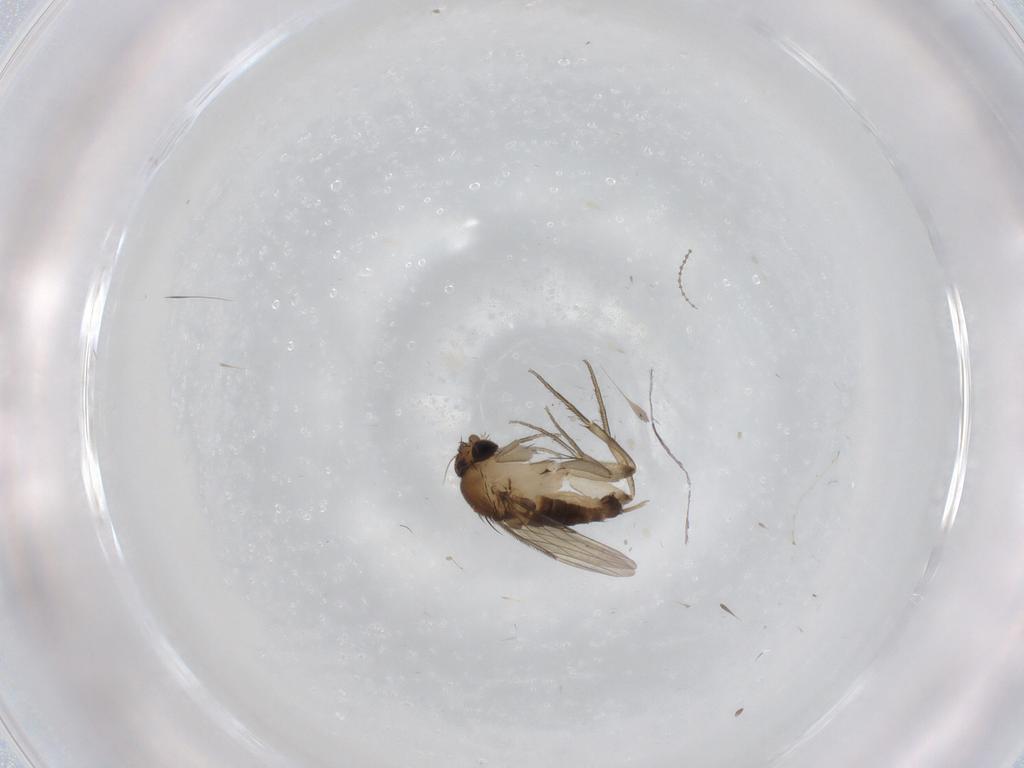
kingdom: Animalia
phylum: Arthropoda
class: Insecta
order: Diptera
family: Phoridae
